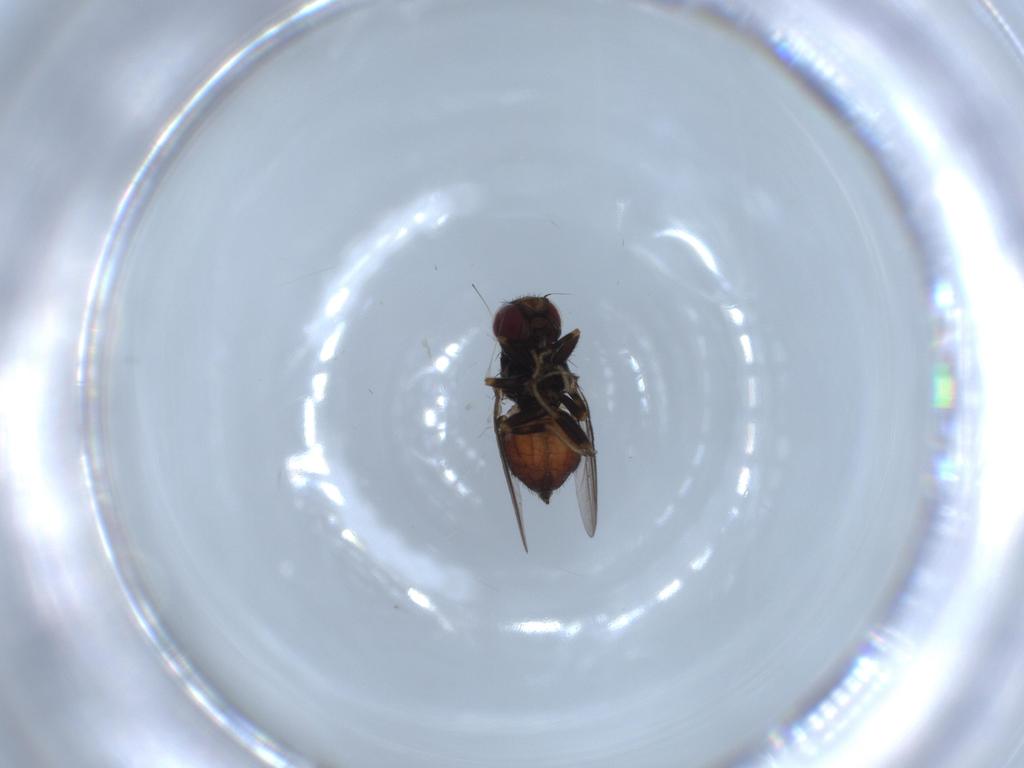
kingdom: Animalia
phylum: Arthropoda
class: Insecta
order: Diptera
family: Chloropidae
